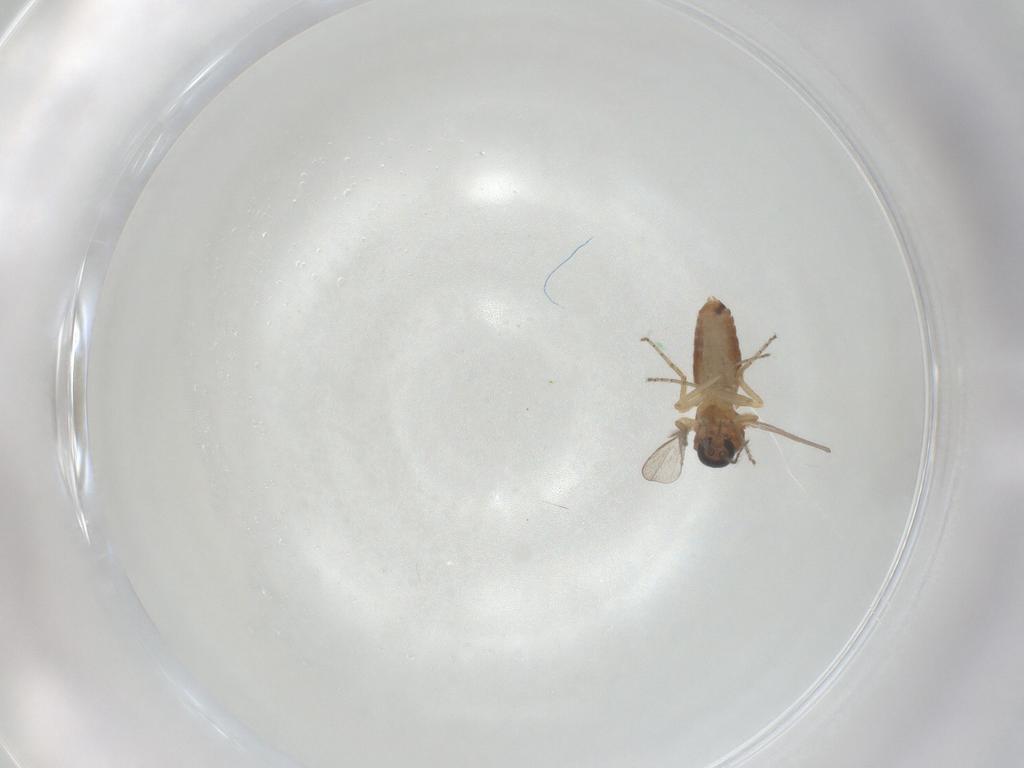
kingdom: Animalia
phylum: Arthropoda
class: Insecta
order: Diptera
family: Ceratopogonidae
